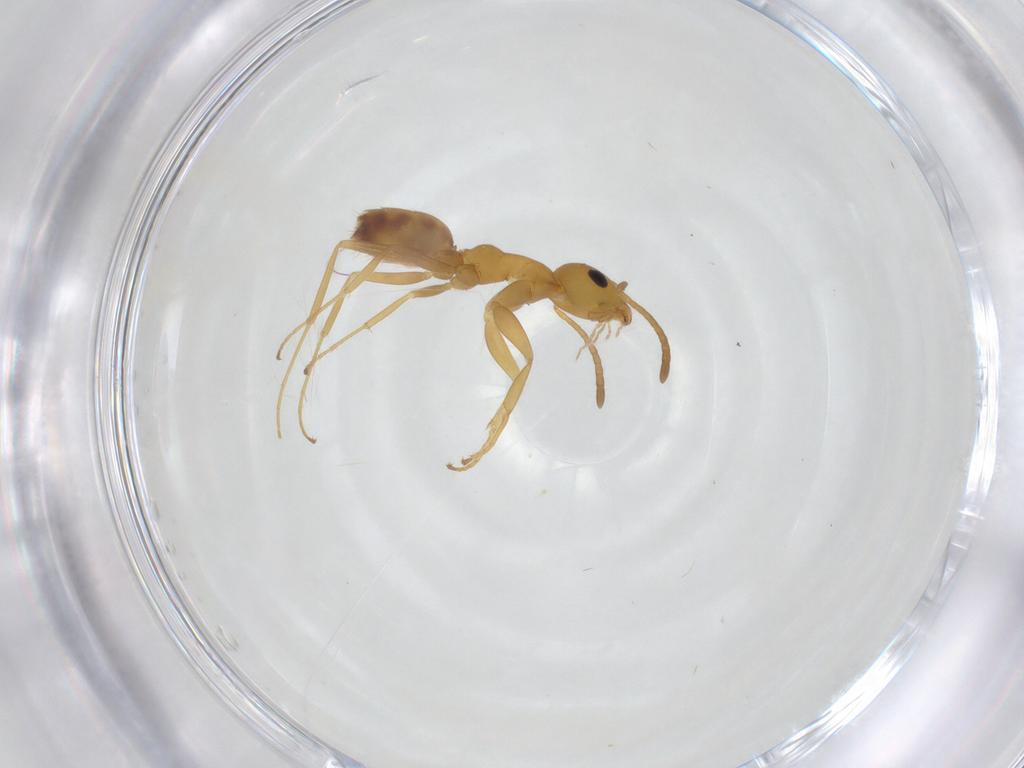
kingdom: Animalia
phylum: Arthropoda
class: Insecta
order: Hymenoptera
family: Formicidae
